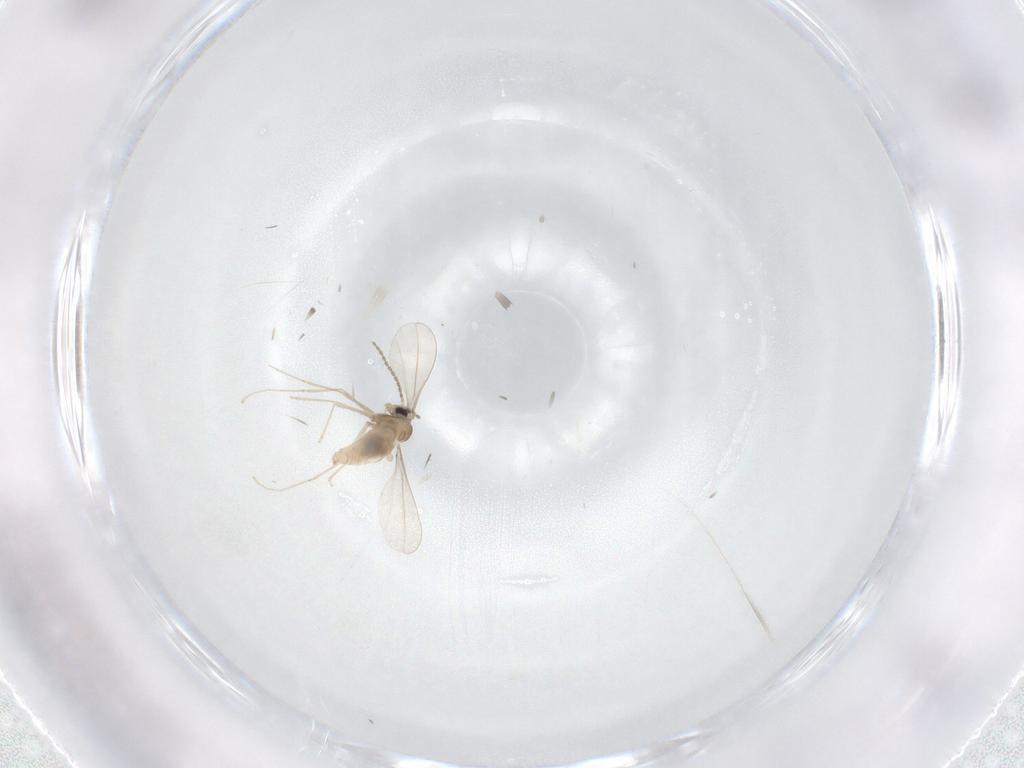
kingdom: Animalia
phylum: Arthropoda
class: Insecta
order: Diptera
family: Cecidomyiidae
